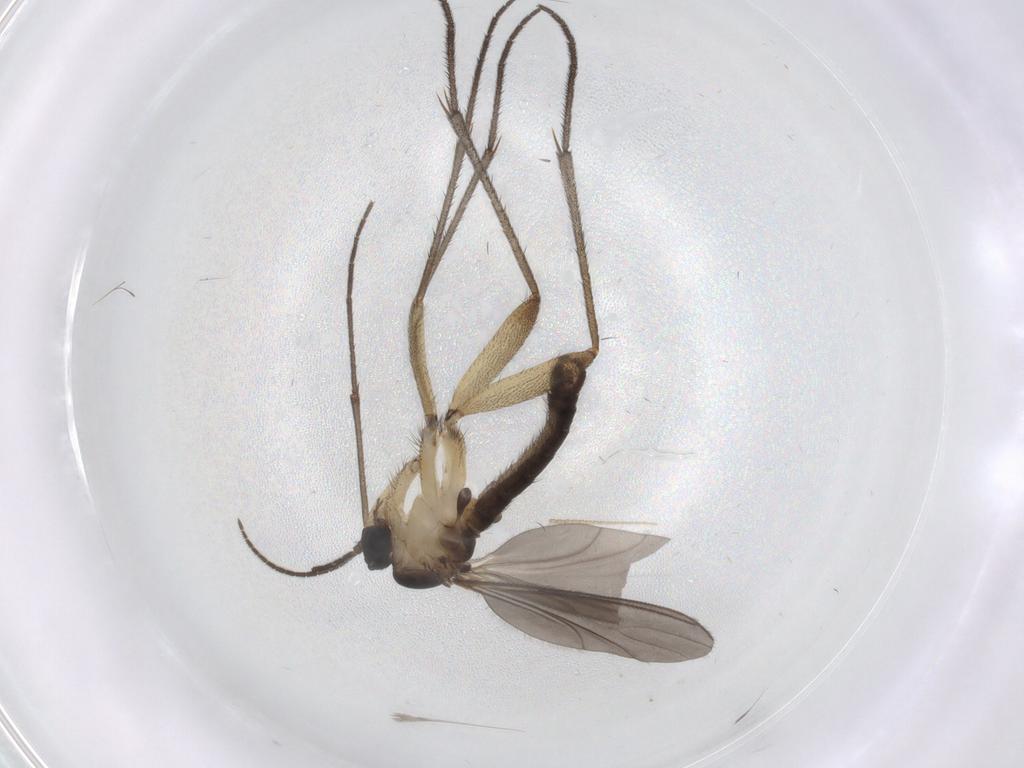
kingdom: Animalia
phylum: Arthropoda
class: Insecta
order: Diptera
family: Sciaridae
